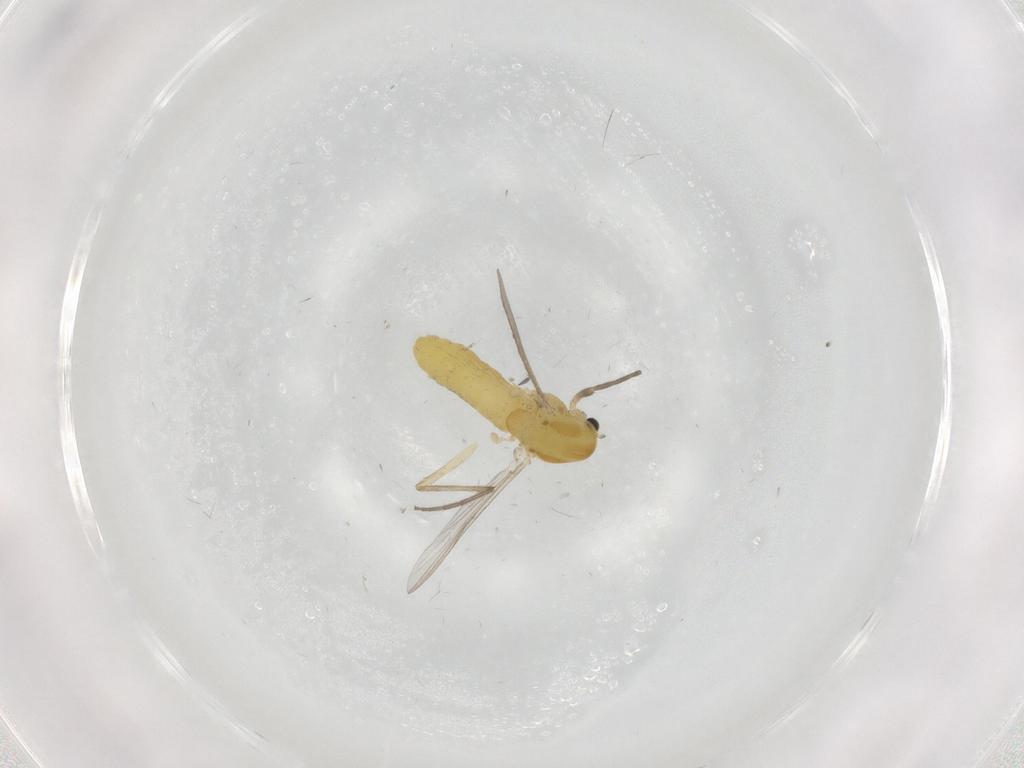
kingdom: Animalia
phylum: Arthropoda
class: Insecta
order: Diptera
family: Chironomidae
